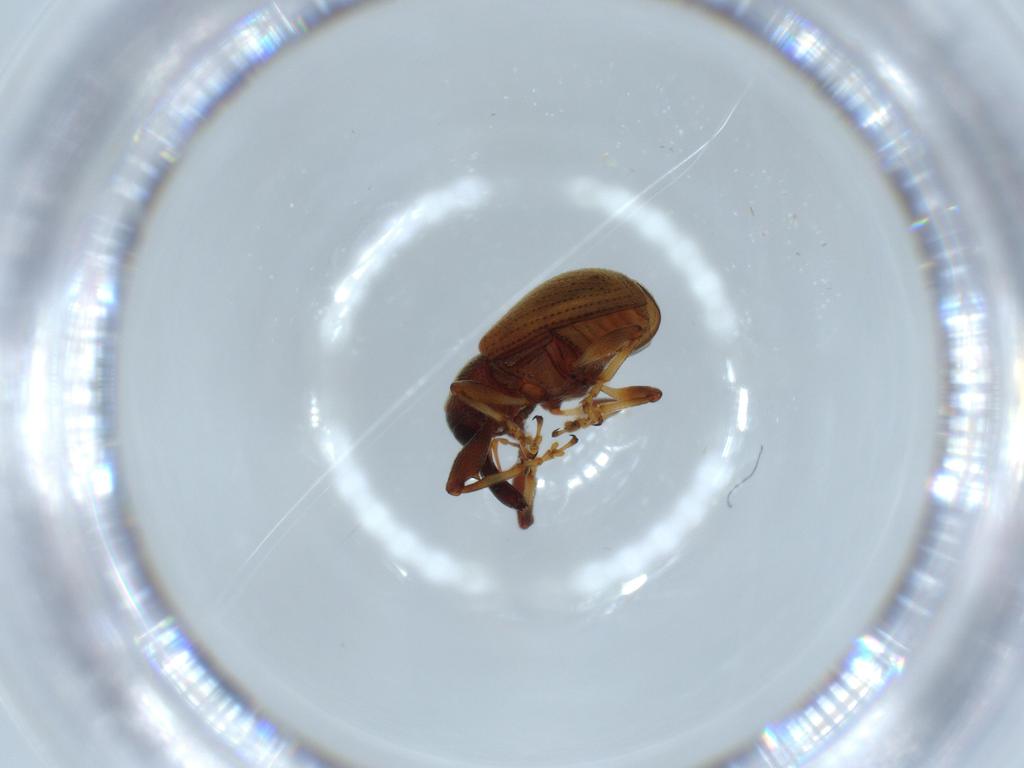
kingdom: Animalia
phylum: Arthropoda
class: Insecta
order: Coleoptera
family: Curculionidae
